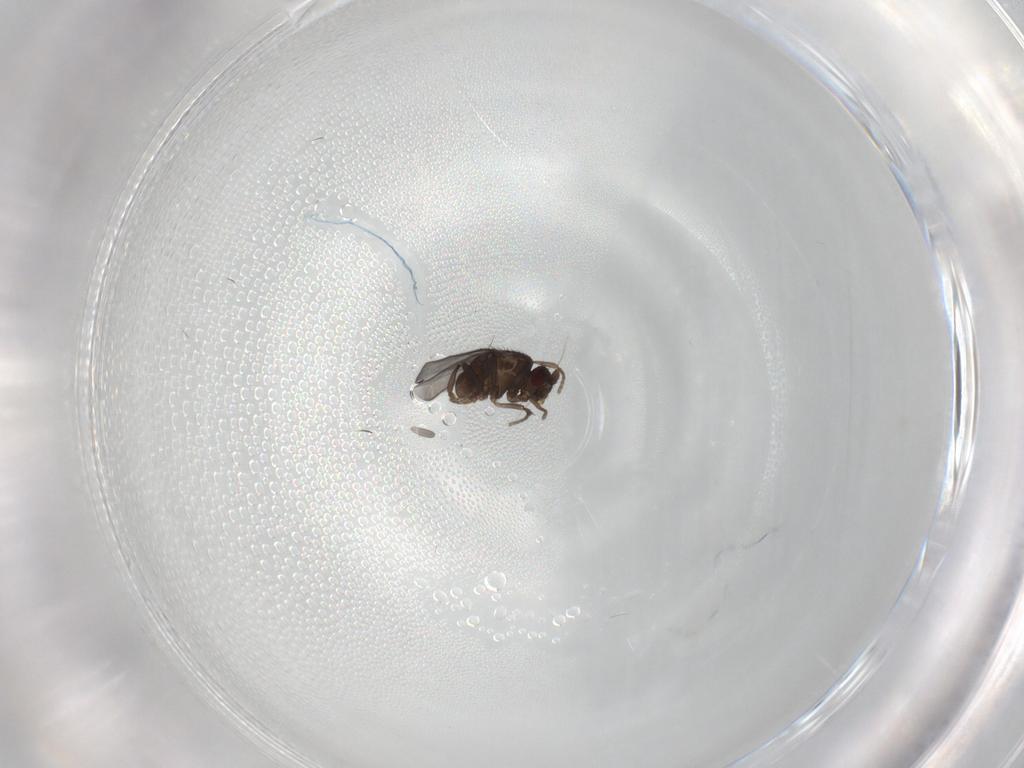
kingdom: Animalia
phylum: Arthropoda
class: Insecta
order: Diptera
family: Sphaeroceridae
